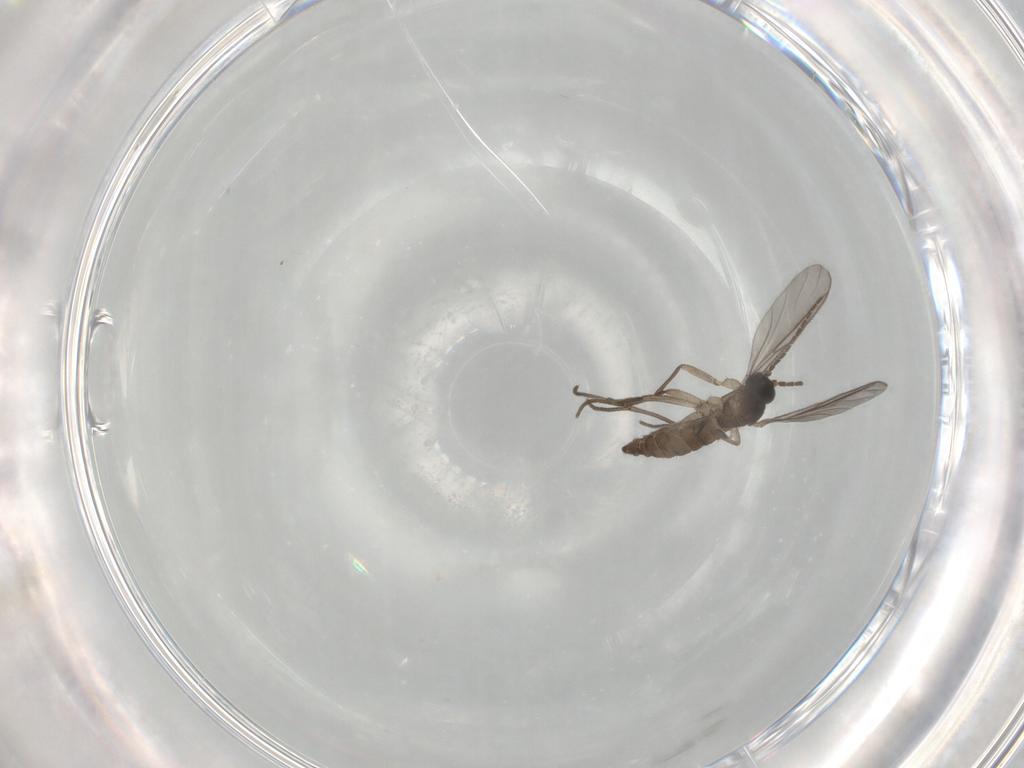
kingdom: Animalia
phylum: Arthropoda
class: Insecta
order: Diptera
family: Sciaridae
